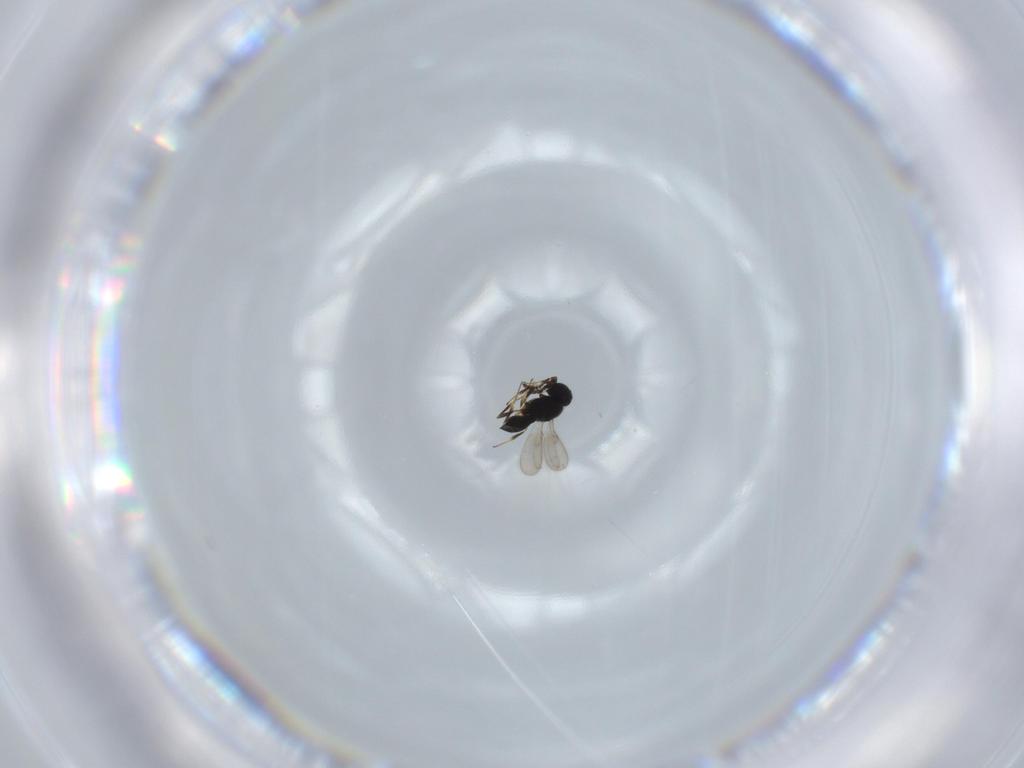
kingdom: Animalia
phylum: Arthropoda
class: Insecta
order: Hymenoptera
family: Scelionidae
